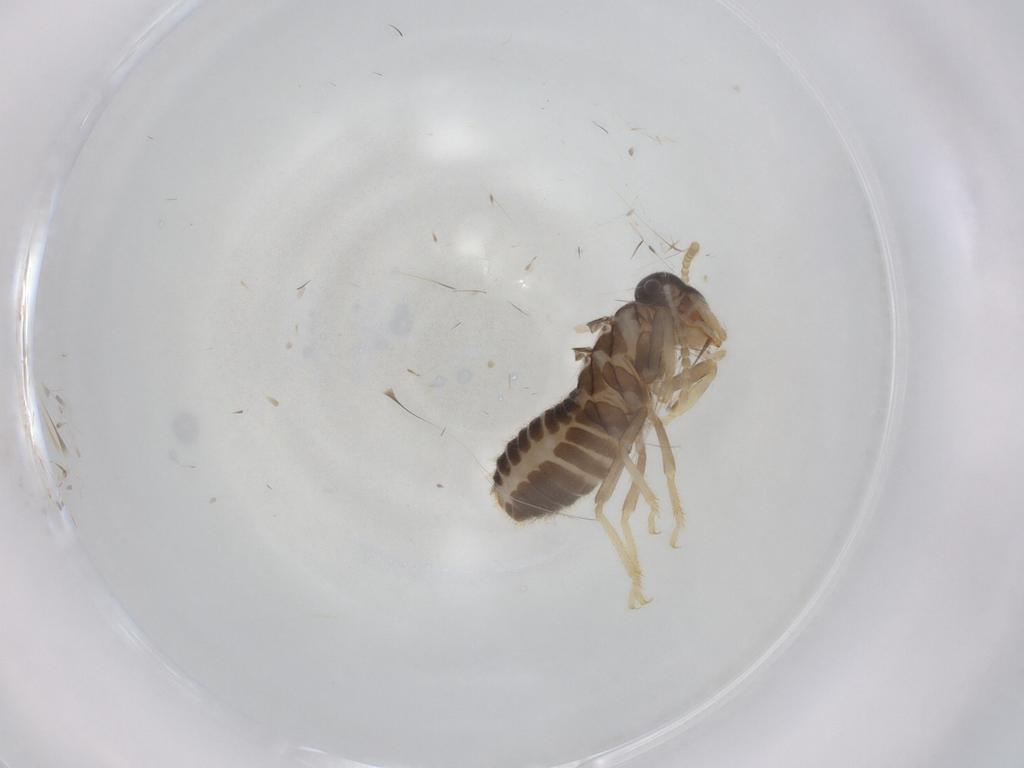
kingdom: Animalia
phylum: Arthropoda
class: Insecta
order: Blattodea
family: Termitidae
